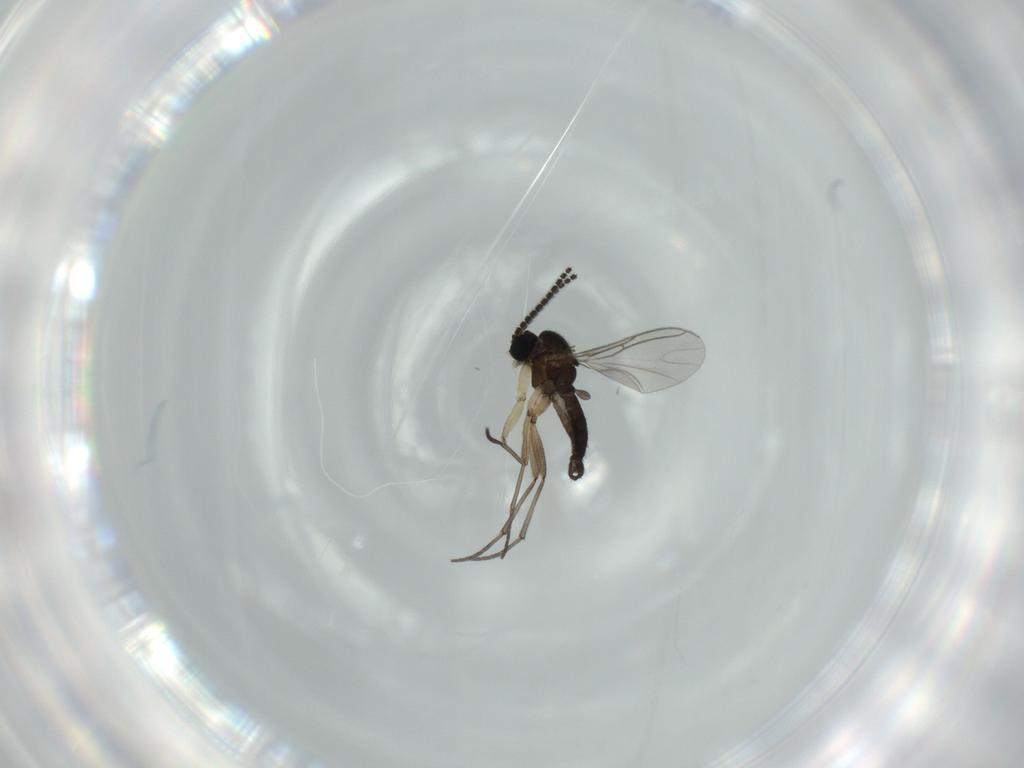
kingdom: Animalia
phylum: Arthropoda
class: Insecta
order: Diptera
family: Sciaridae
